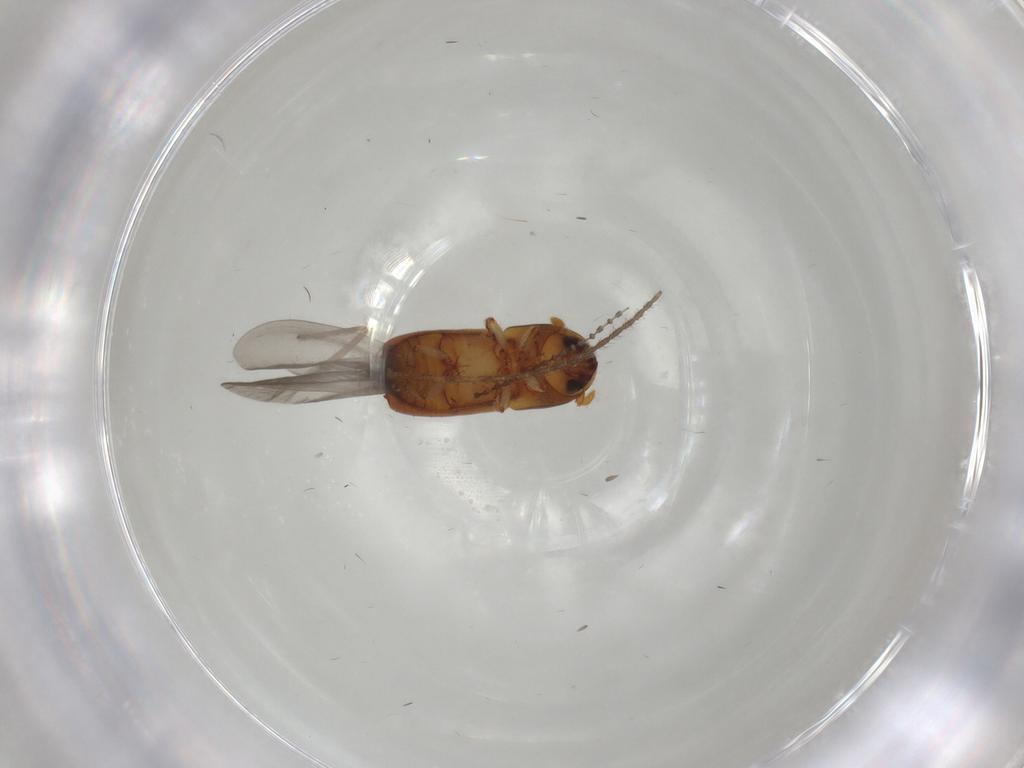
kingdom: Animalia
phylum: Arthropoda
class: Insecta
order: Coleoptera
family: Curculionidae
